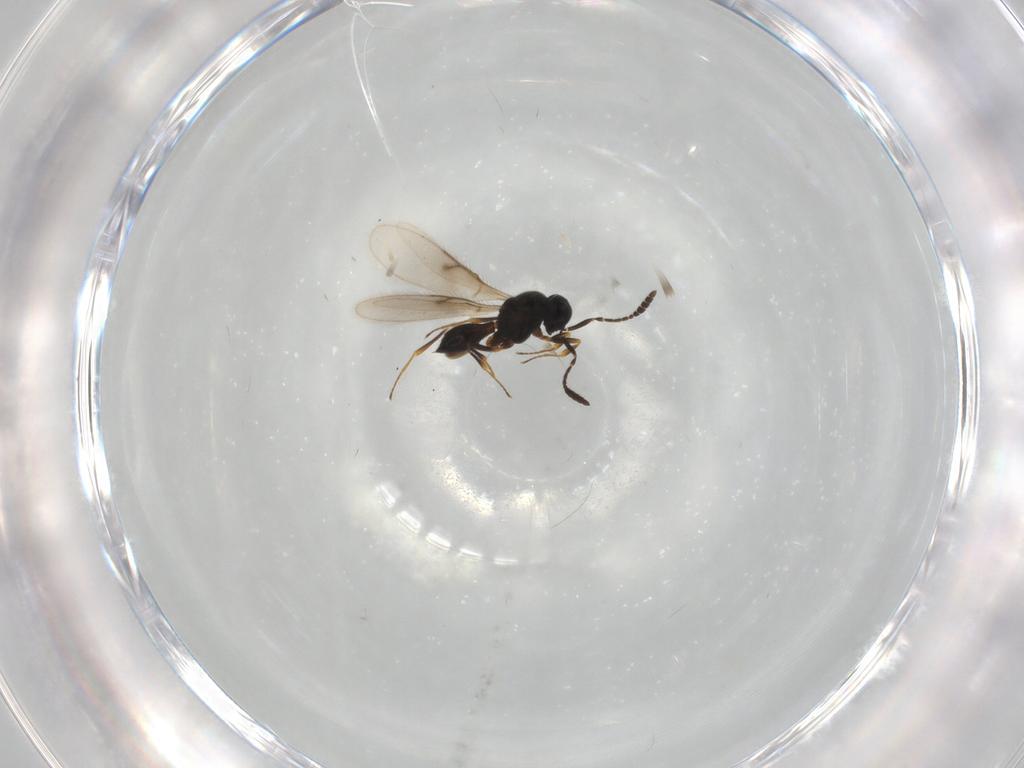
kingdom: Animalia
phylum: Arthropoda
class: Insecta
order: Hymenoptera
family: Scelionidae
